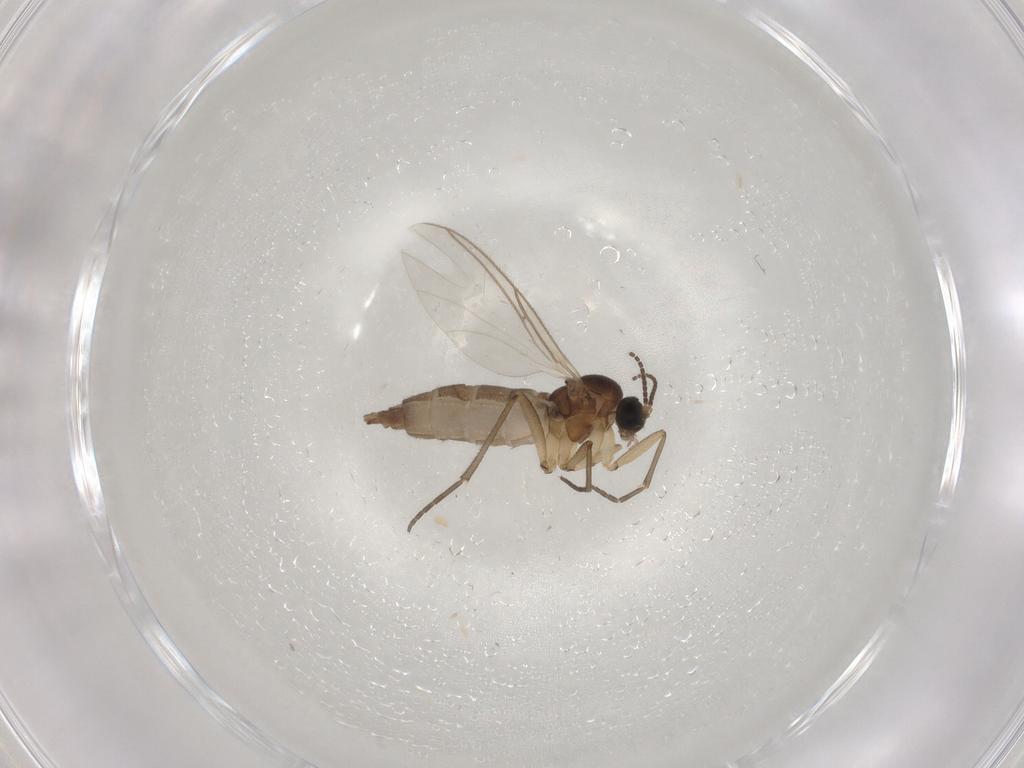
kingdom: Animalia
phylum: Arthropoda
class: Insecta
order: Diptera
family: Sciaridae
